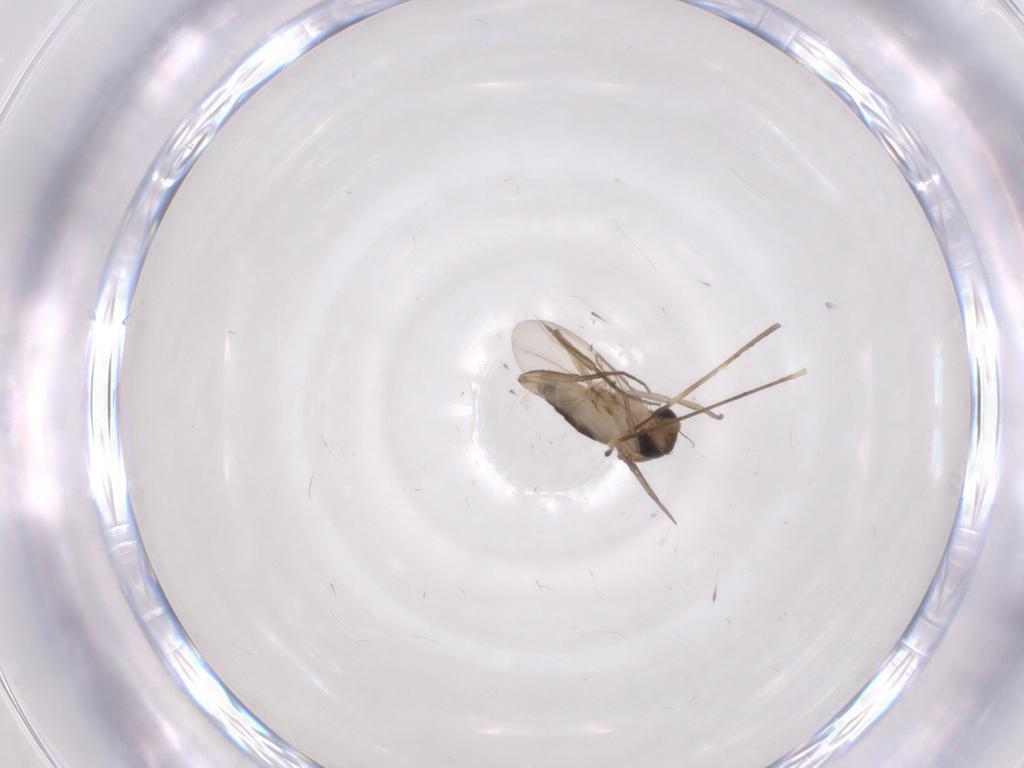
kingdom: Animalia
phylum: Arthropoda
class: Insecta
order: Diptera
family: Phoridae
